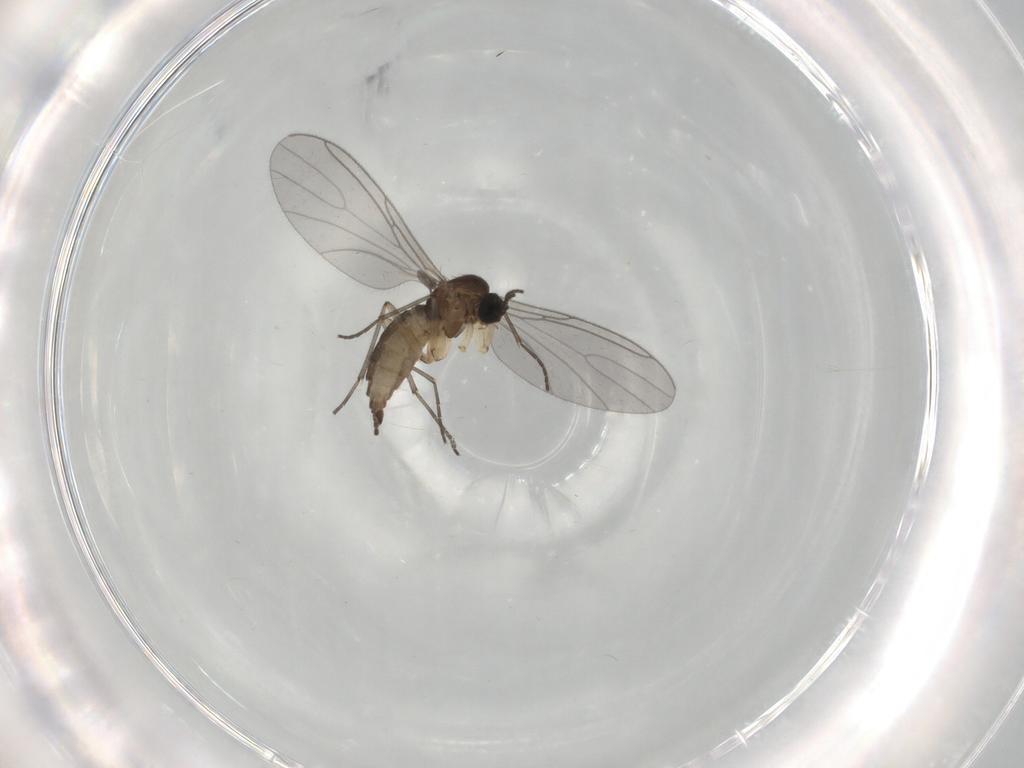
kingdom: Animalia
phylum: Arthropoda
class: Insecta
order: Diptera
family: Sciaridae
